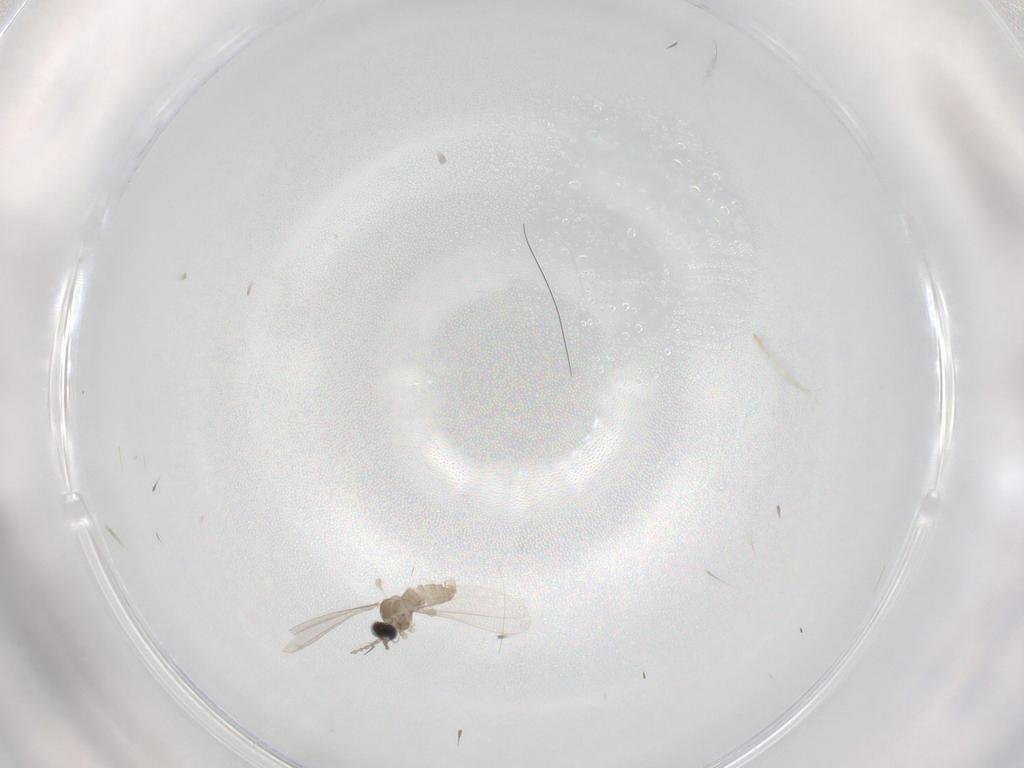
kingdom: Animalia
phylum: Arthropoda
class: Insecta
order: Diptera
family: Cecidomyiidae
